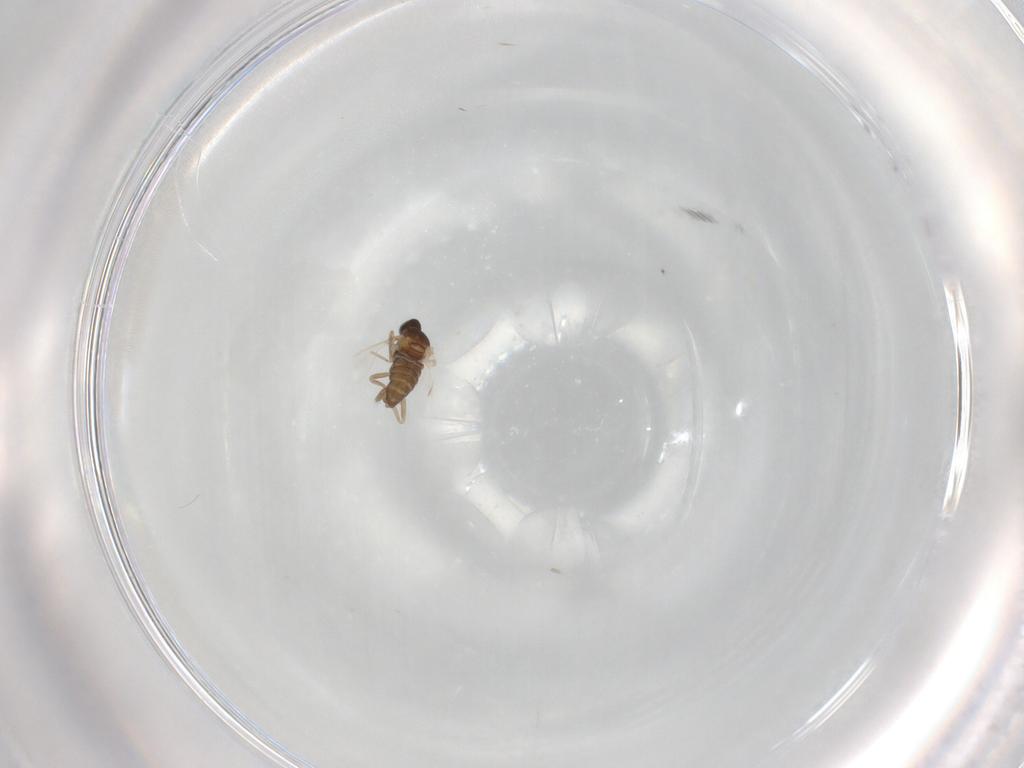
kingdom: Animalia
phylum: Arthropoda
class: Insecta
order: Diptera
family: Cecidomyiidae
